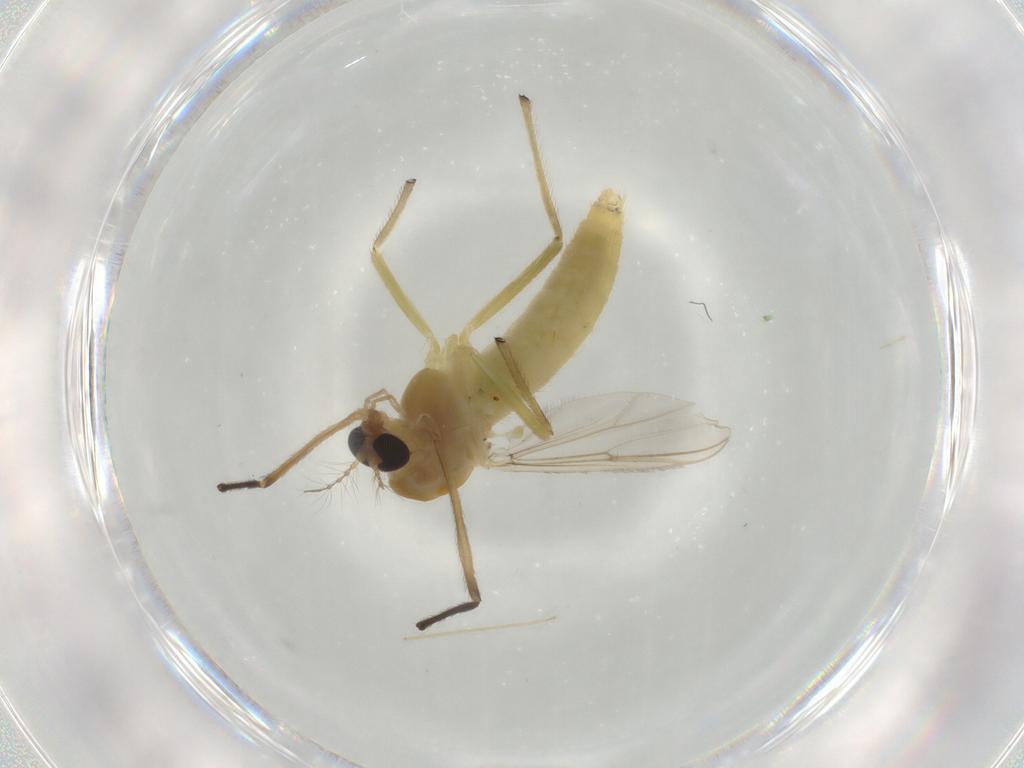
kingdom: Animalia
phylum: Arthropoda
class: Insecta
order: Diptera
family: Chironomidae
